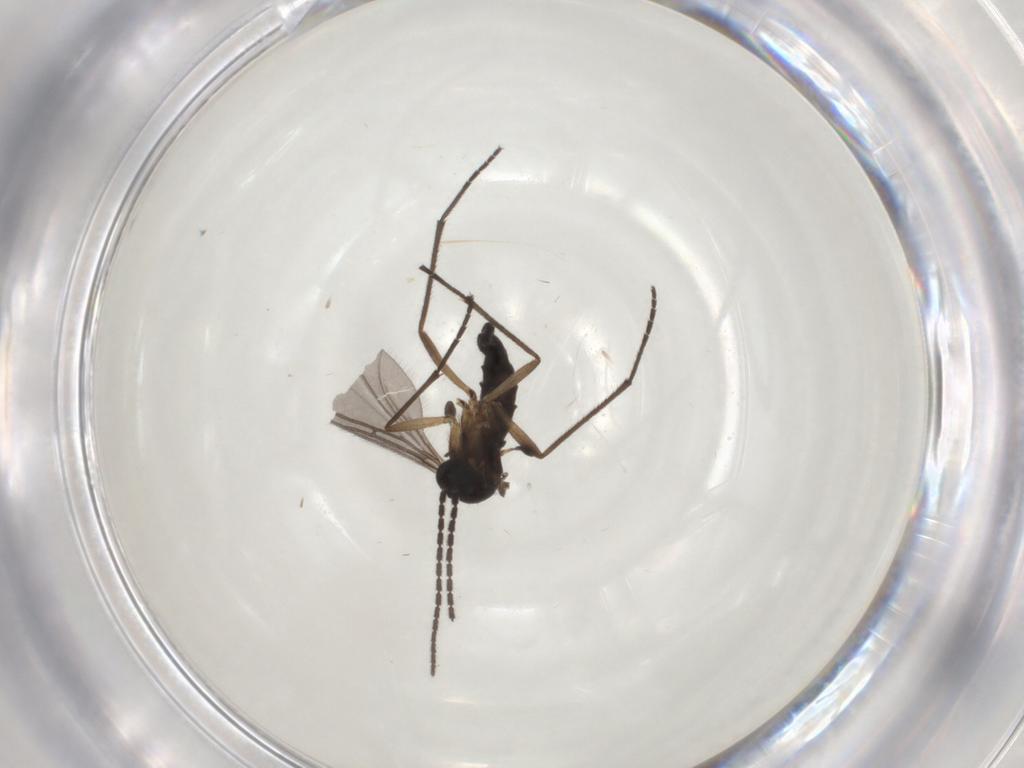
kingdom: Animalia
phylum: Arthropoda
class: Insecta
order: Diptera
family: Sciaridae
